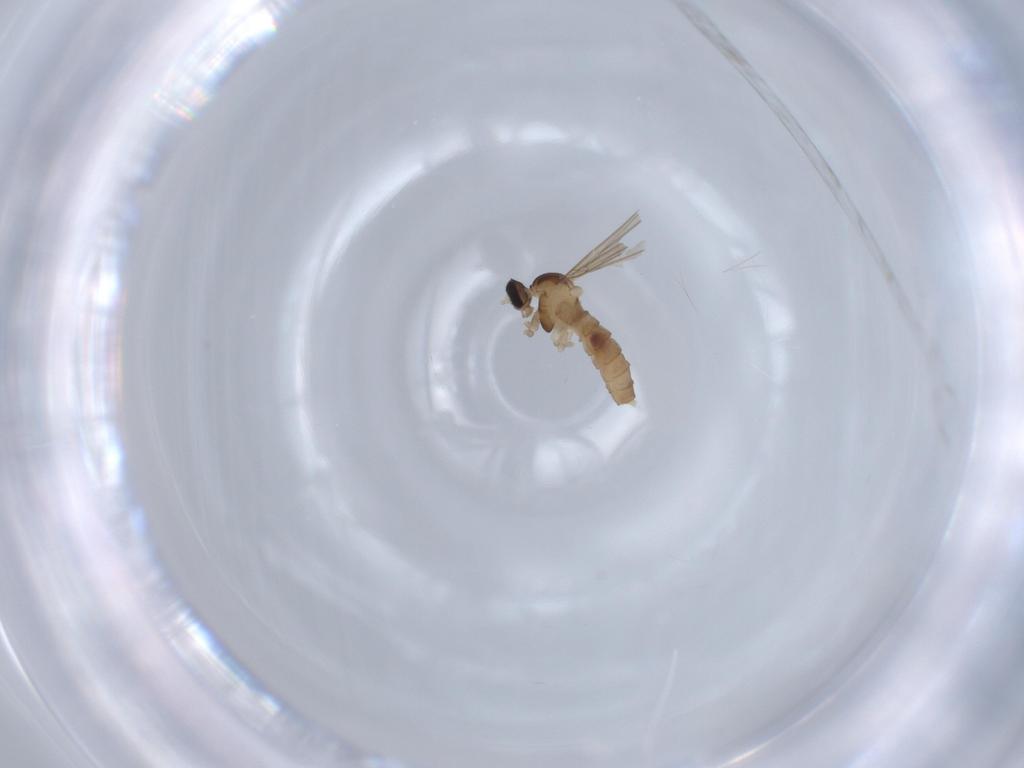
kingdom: Animalia
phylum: Arthropoda
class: Insecta
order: Diptera
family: Cecidomyiidae
